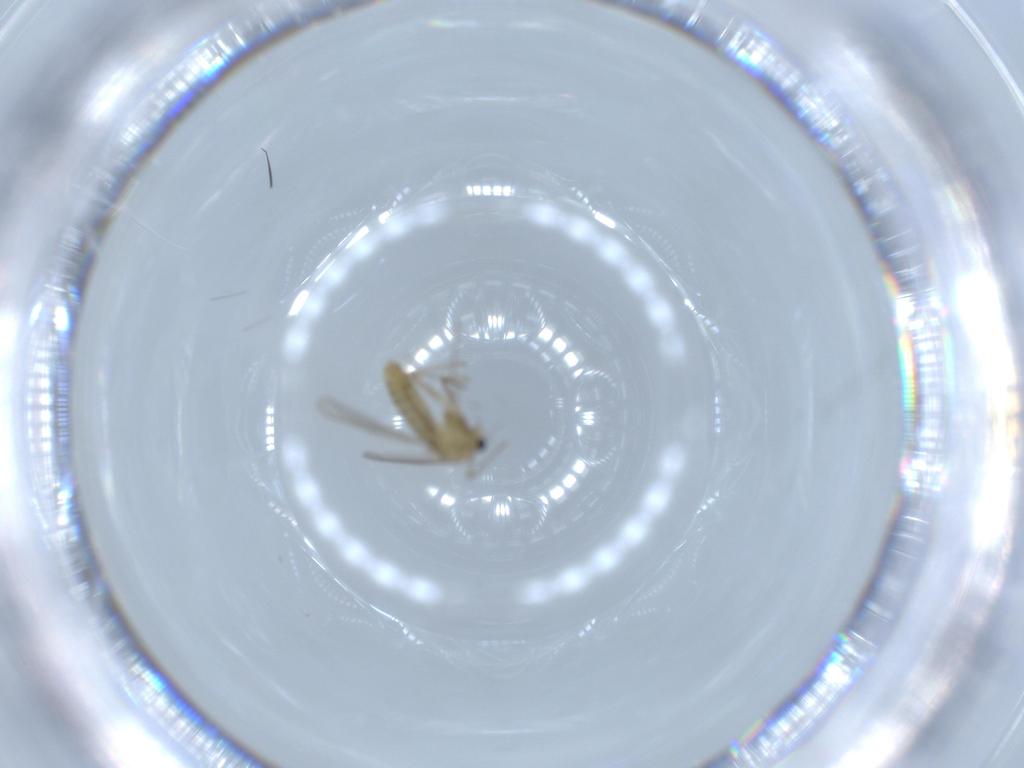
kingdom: Animalia
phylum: Arthropoda
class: Insecta
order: Diptera
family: Chironomidae
